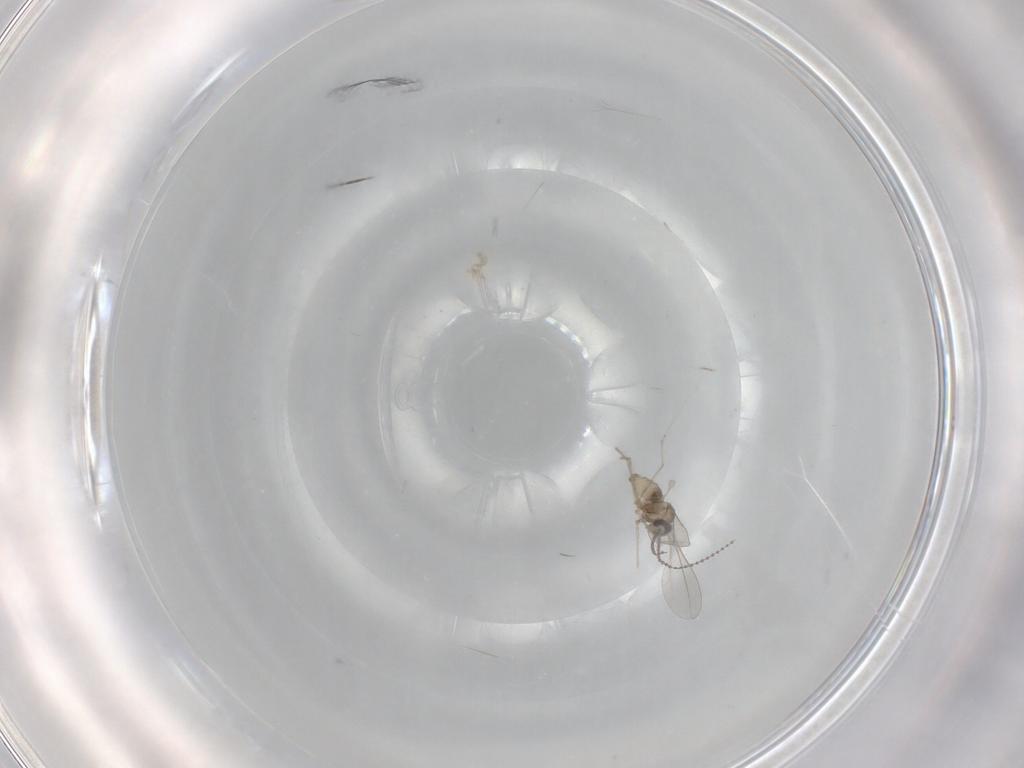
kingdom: Animalia
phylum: Arthropoda
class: Insecta
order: Diptera
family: Cecidomyiidae
